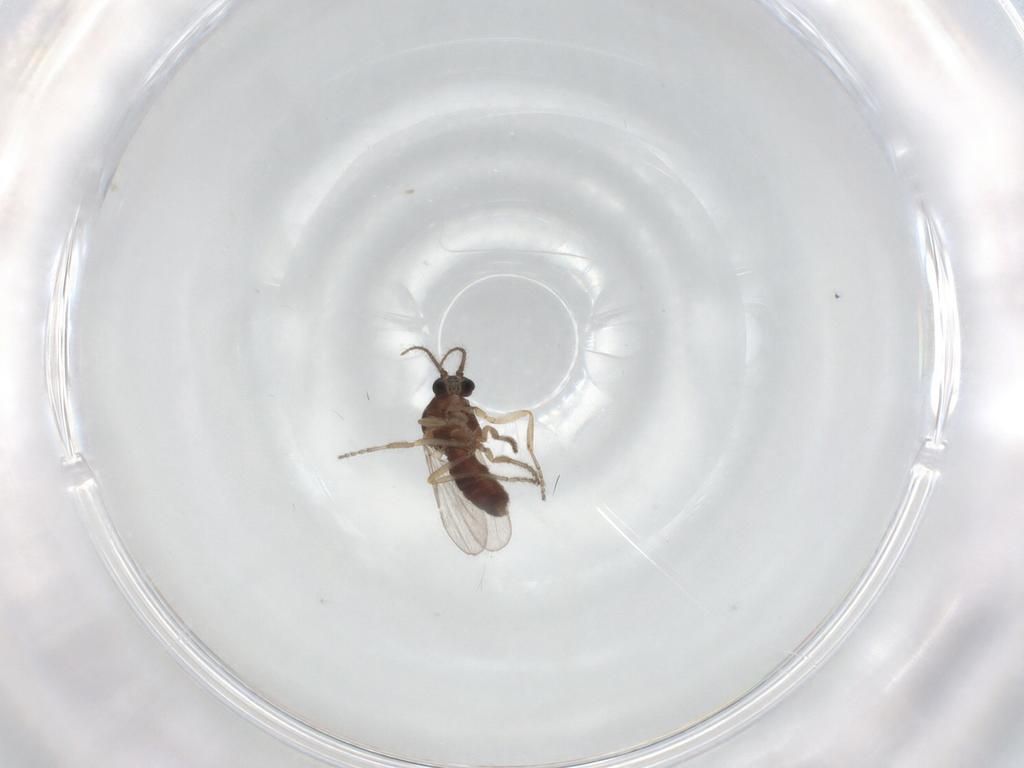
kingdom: Animalia
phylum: Arthropoda
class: Insecta
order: Diptera
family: Ceratopogonidae
